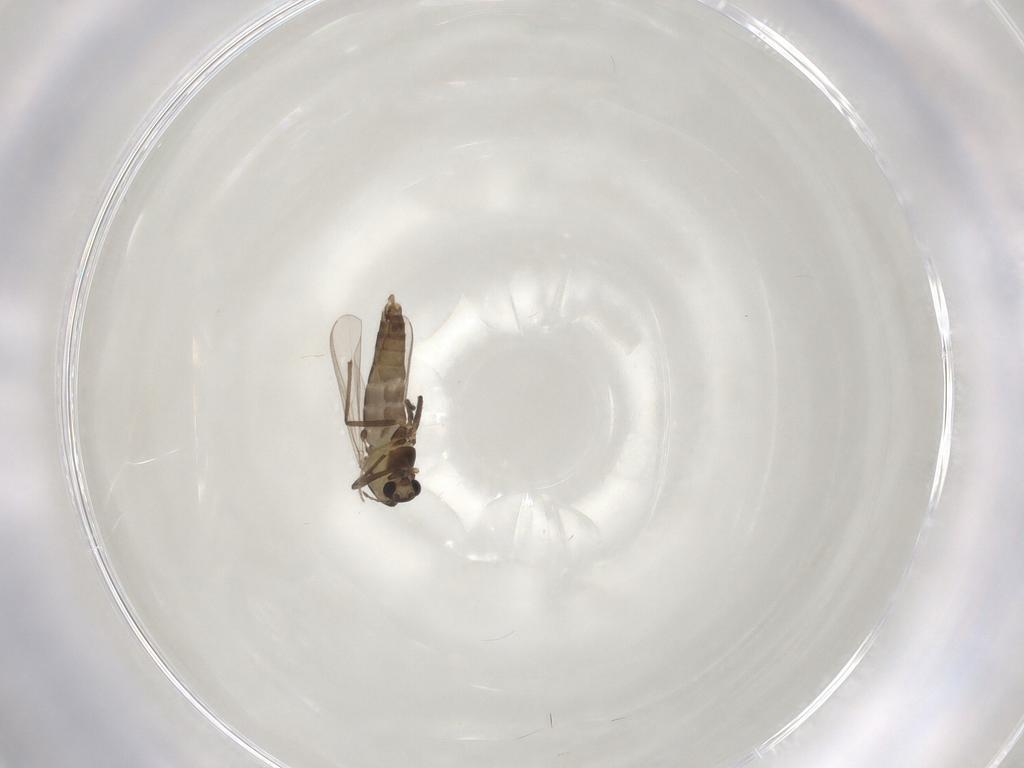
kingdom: Animalia
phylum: Arthropoda
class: Insecta
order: Diptera
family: Chironomidae
